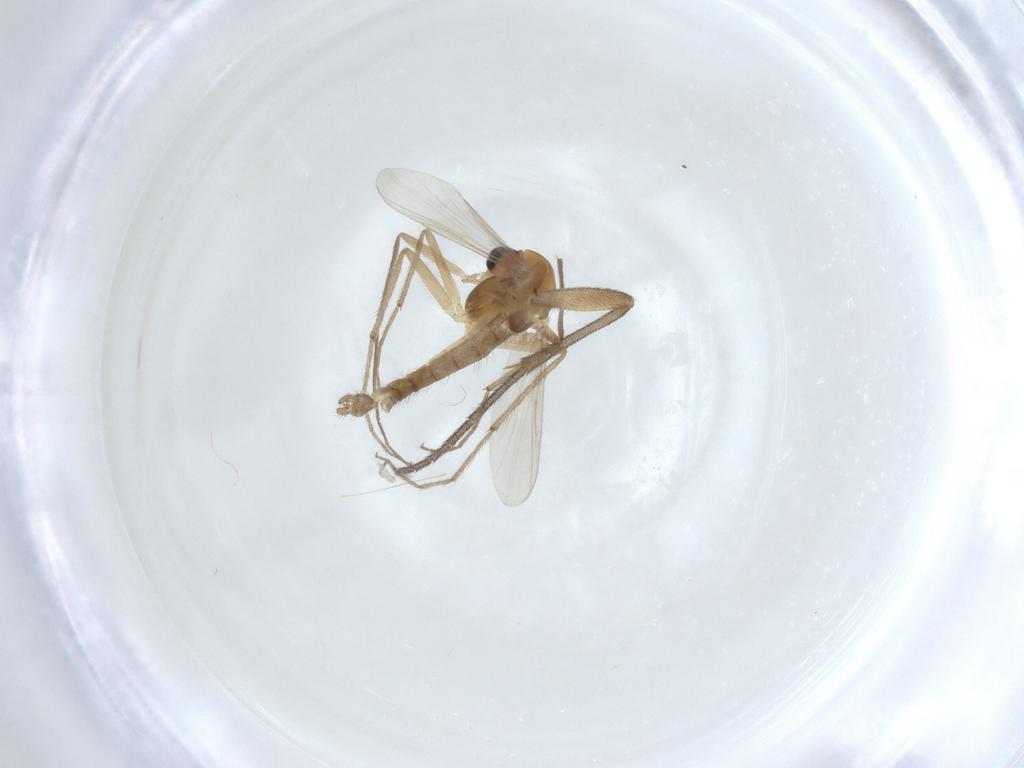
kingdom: Animalia
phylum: Arthropoda
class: Insecta
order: Diptera
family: Chironomidae
